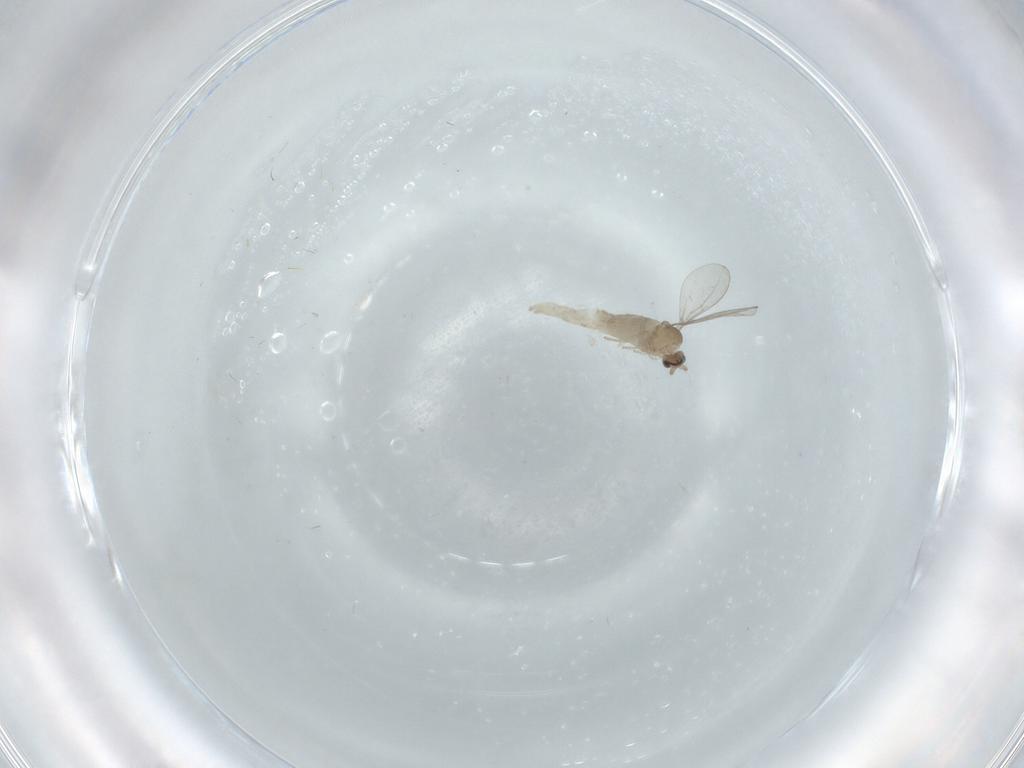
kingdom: Animalia
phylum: Arthropoda
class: Insecta
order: Diptera
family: Cecidomyiidae
